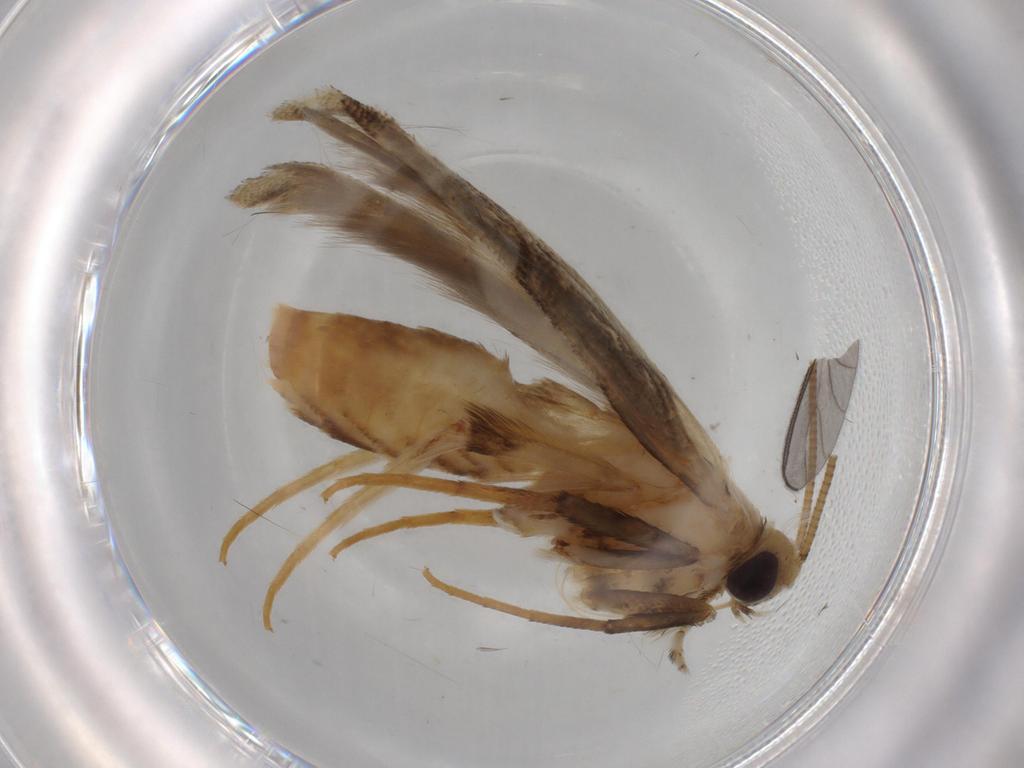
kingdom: Animalia
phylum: Arthropoda
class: Insecta
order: Lepidoptera
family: Gracillariidae
